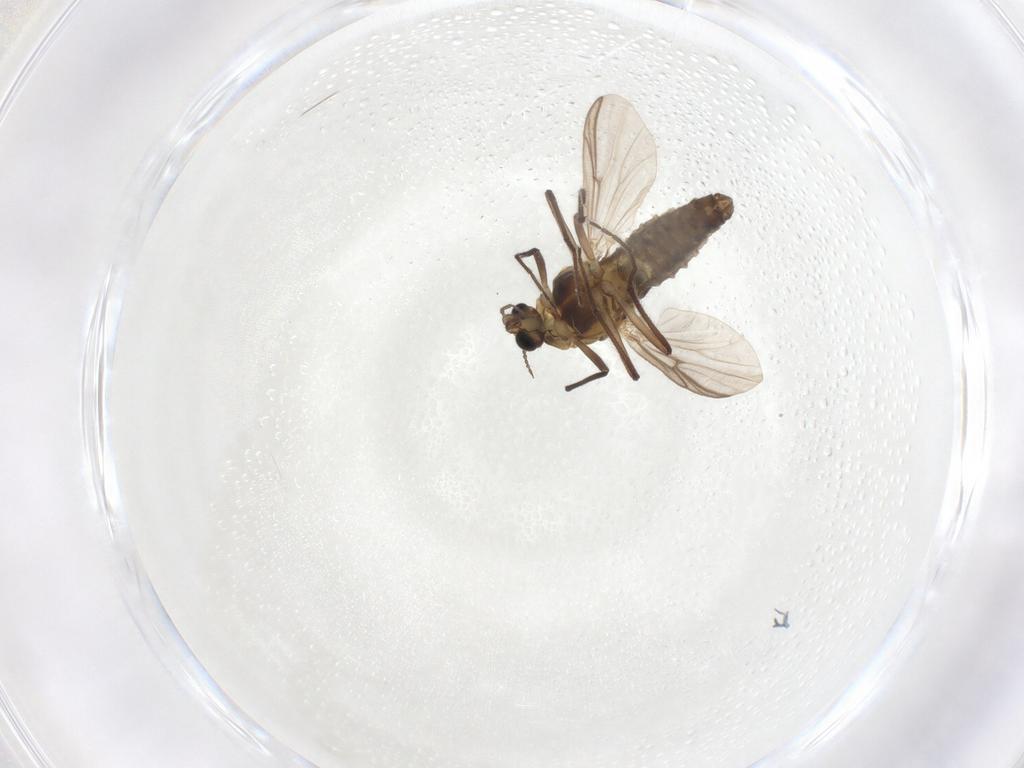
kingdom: Animalia
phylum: Arthropoda
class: Insecta
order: Diptera
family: Chironomidae
